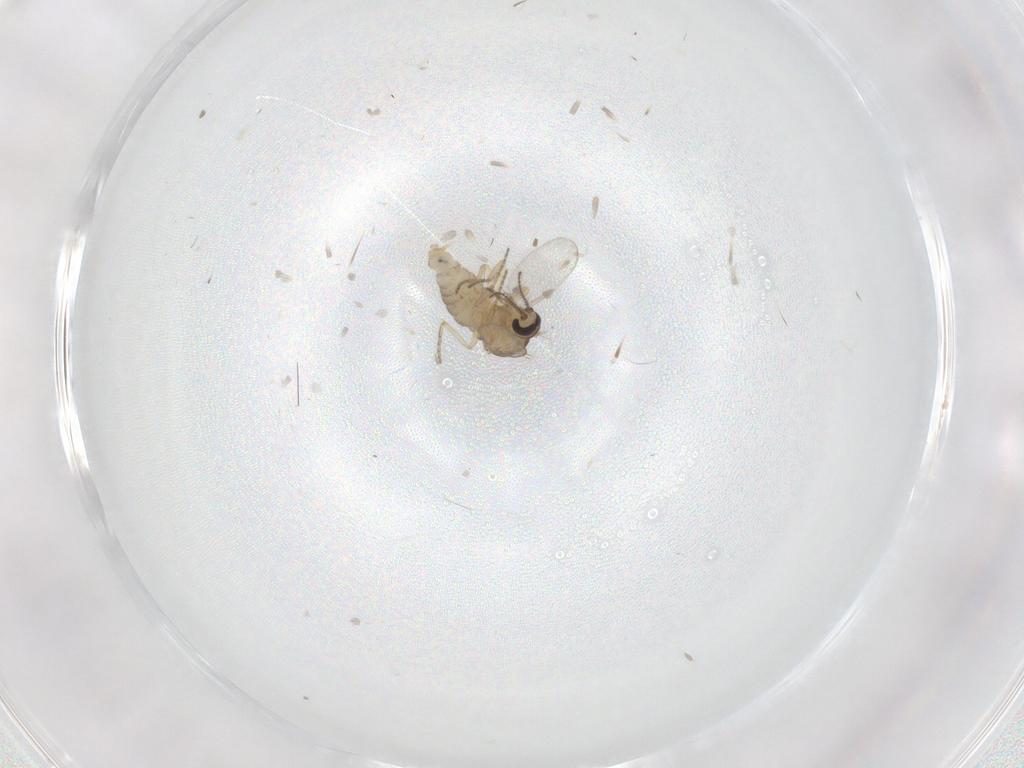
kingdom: Animalia
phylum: Arthropoda
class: Insecta
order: Diptera
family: Ceratopogonidae
